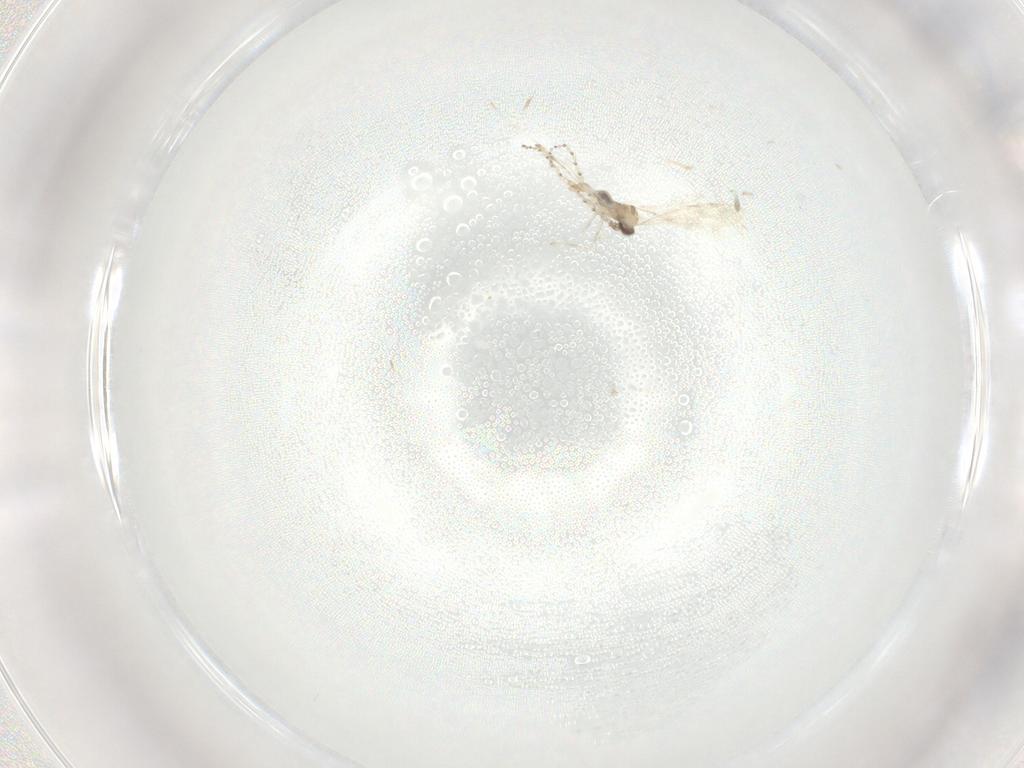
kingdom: Animalia
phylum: Arthropoda
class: Insecta
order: Diptera
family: Cecidomyiidae
